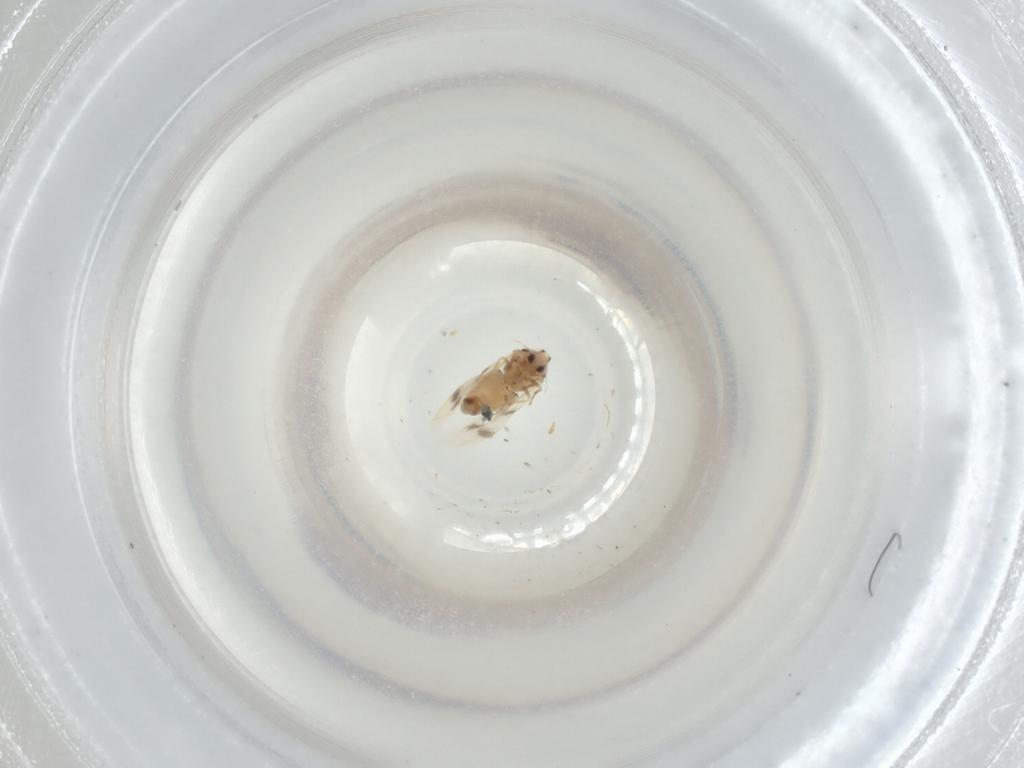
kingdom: Animalia
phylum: Arthropoda
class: Insecta
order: Hemiptera
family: Aleyrodidae
